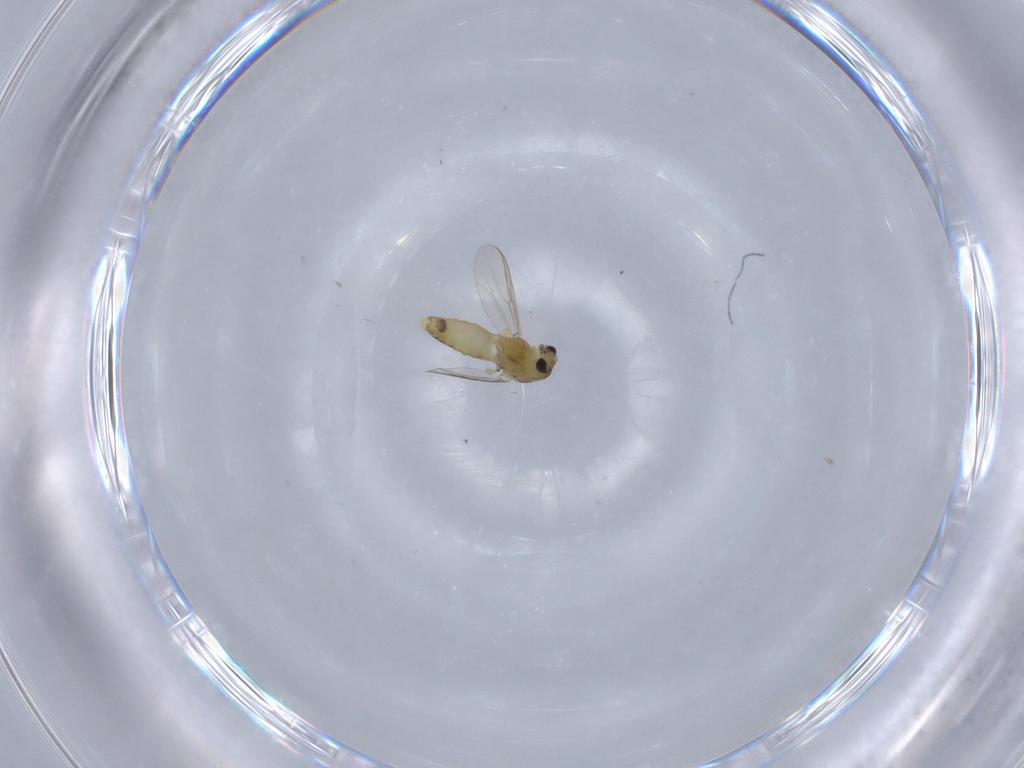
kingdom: Animalia
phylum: Arthropoda
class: Insecta
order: Diptera
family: Chironomidae
